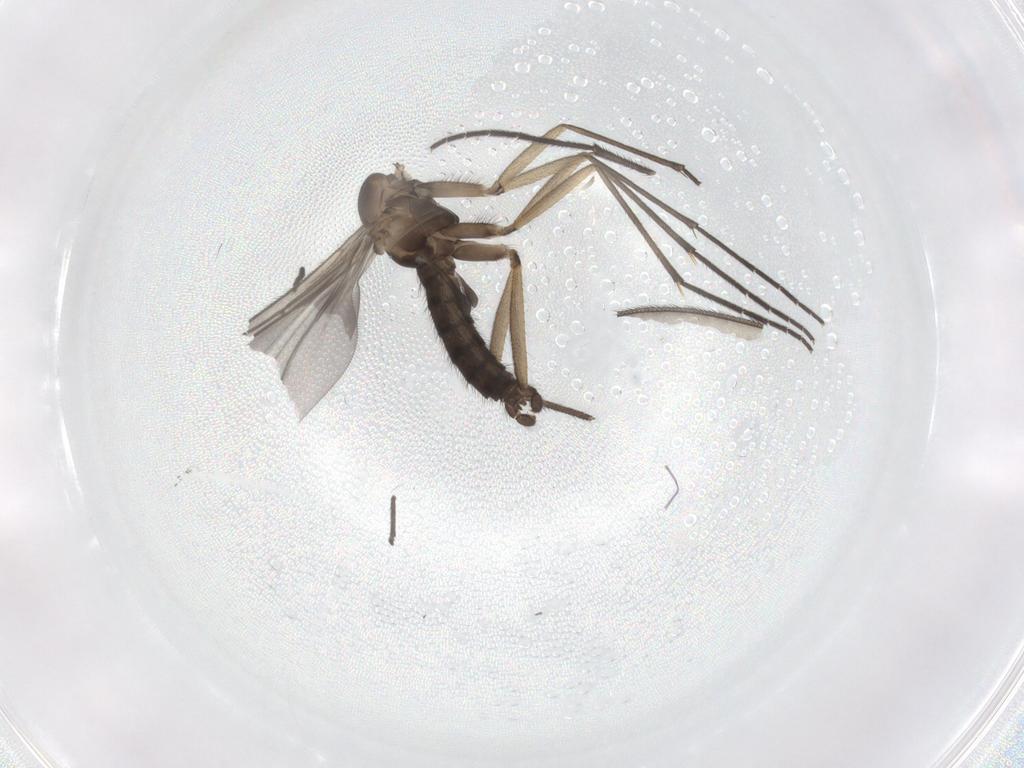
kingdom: Animalia
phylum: Arthropoda
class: Insecta
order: Diptera
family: Sciaridae
